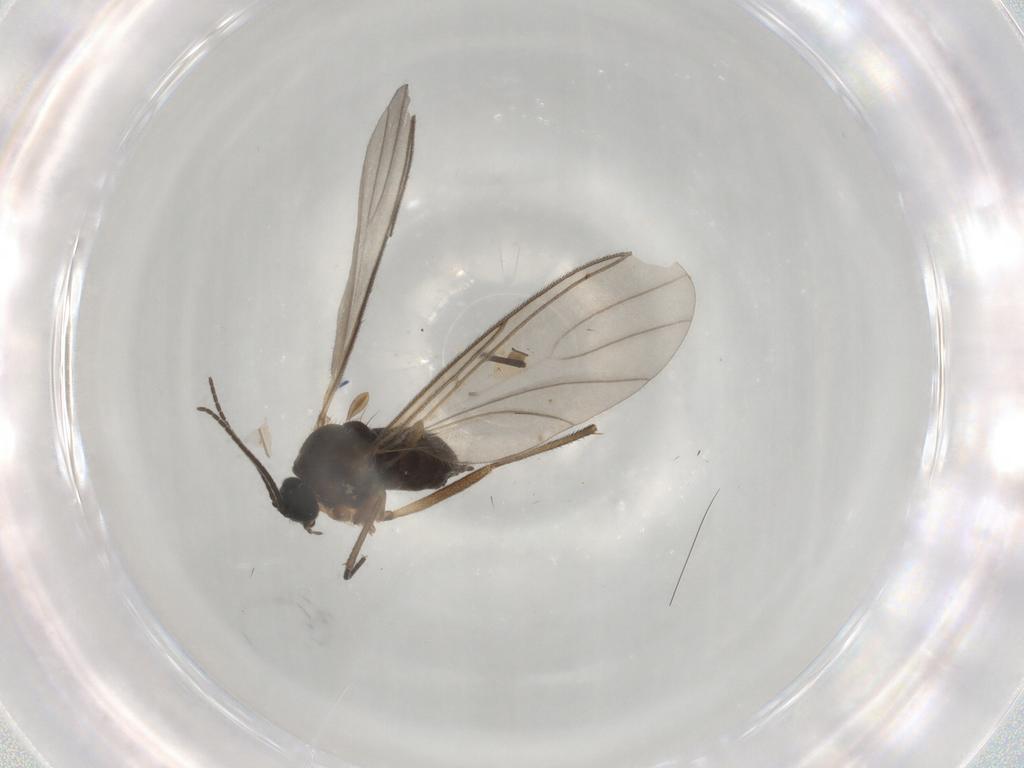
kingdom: Animalia
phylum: Arthropoda
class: Insecta
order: Diptera
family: Sciaridae
